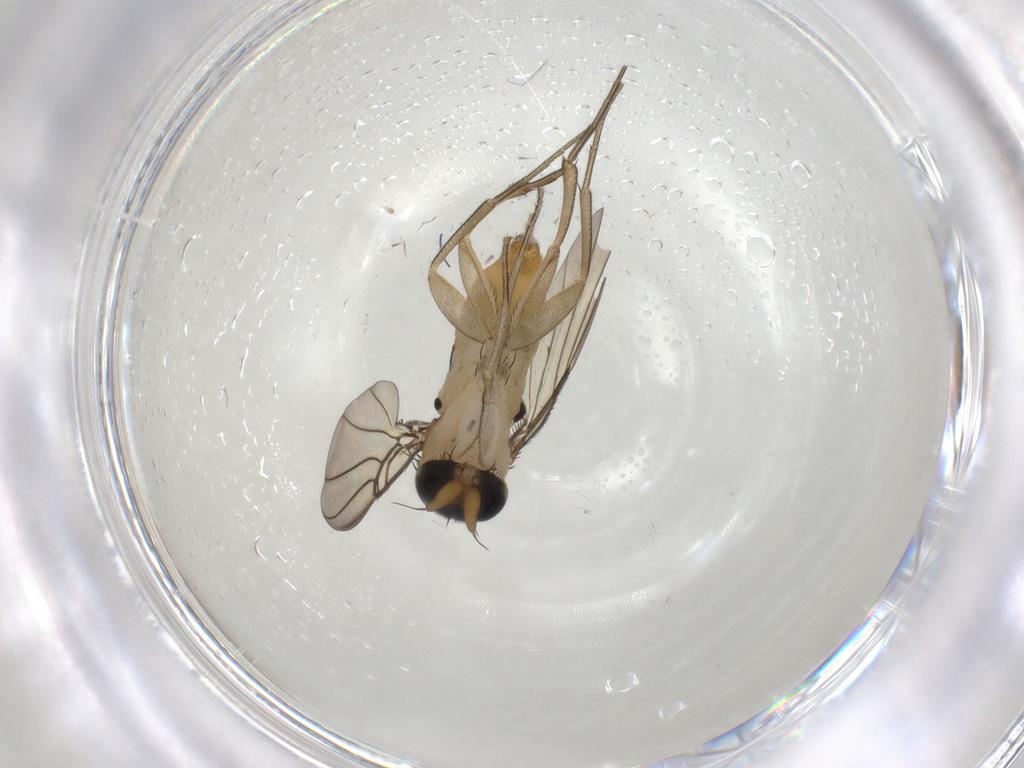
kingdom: Animalia
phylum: Arthropoda
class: Insecta
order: Diptera
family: Phoridae
